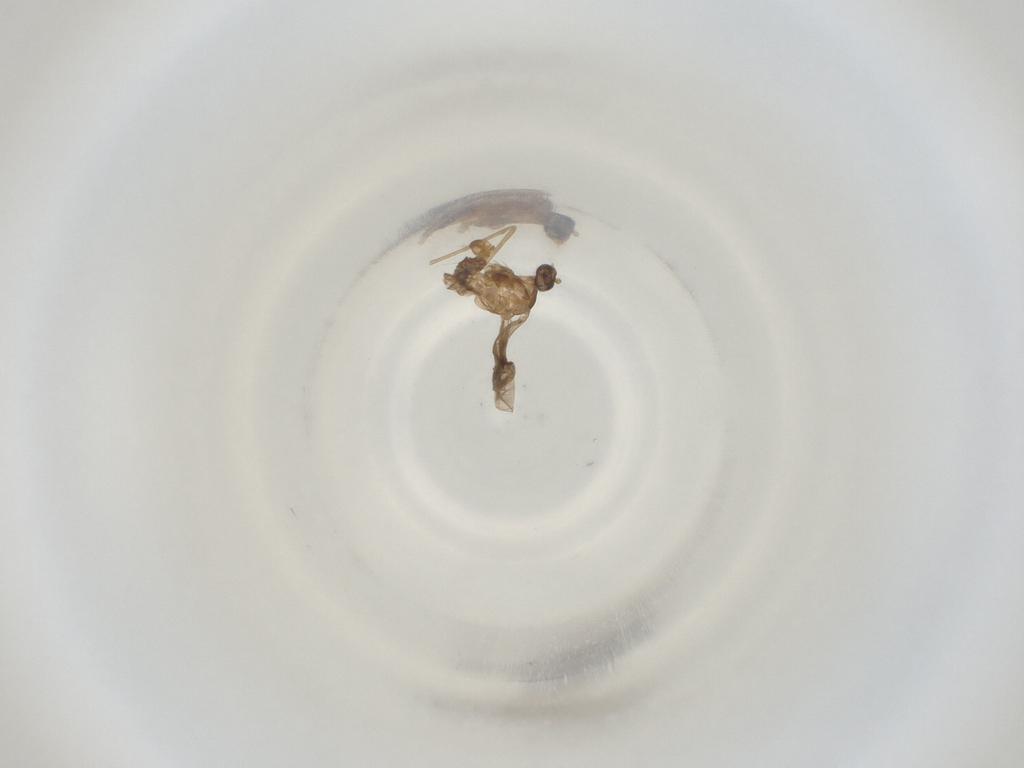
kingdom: Animalia
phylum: Arthropoda
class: Insecta
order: Diptera
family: Cecidomyiidae
